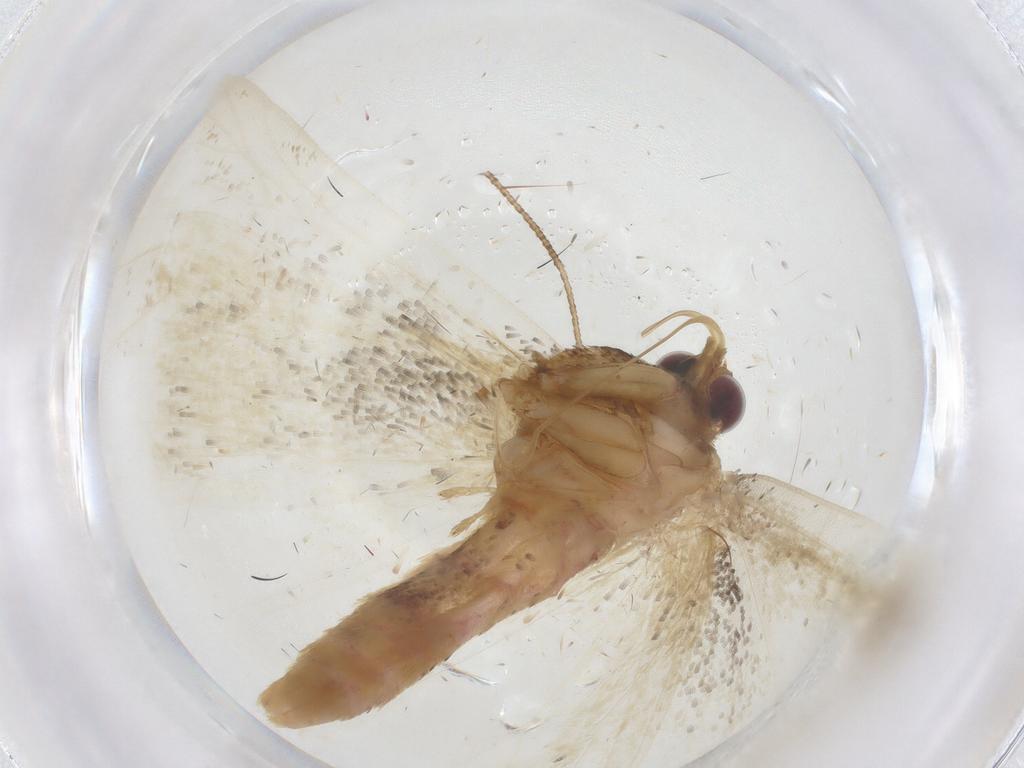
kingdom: Animalia
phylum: Arthropoda
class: Insecta
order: Lepidoptera
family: Geometridae
